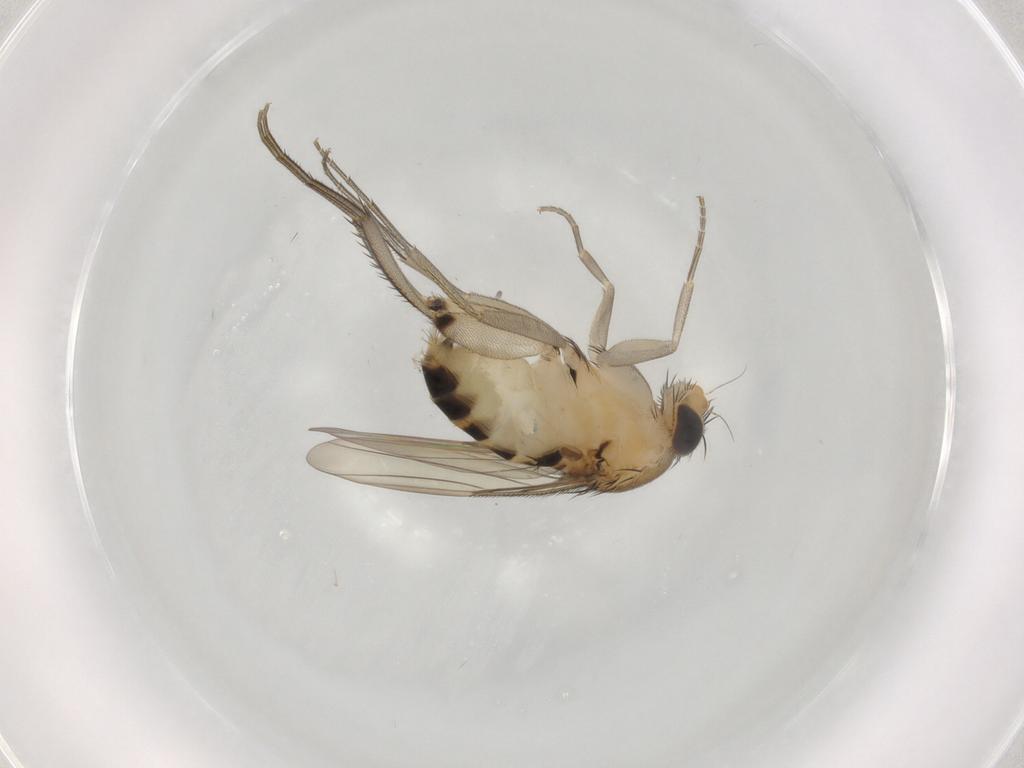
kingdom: Animalia
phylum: Arthropoda
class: Insecta
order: Diptera
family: Phoridae
